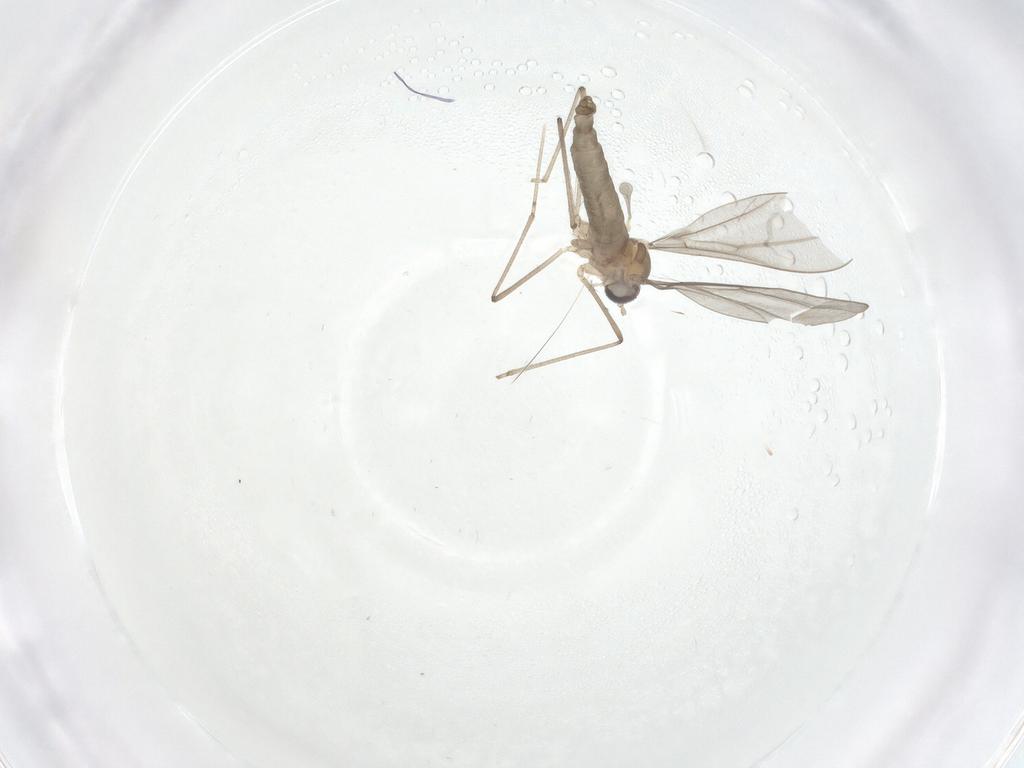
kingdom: Animalia
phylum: Arthropoda
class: Insecta
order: Diptera
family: Cecidomyiidae
